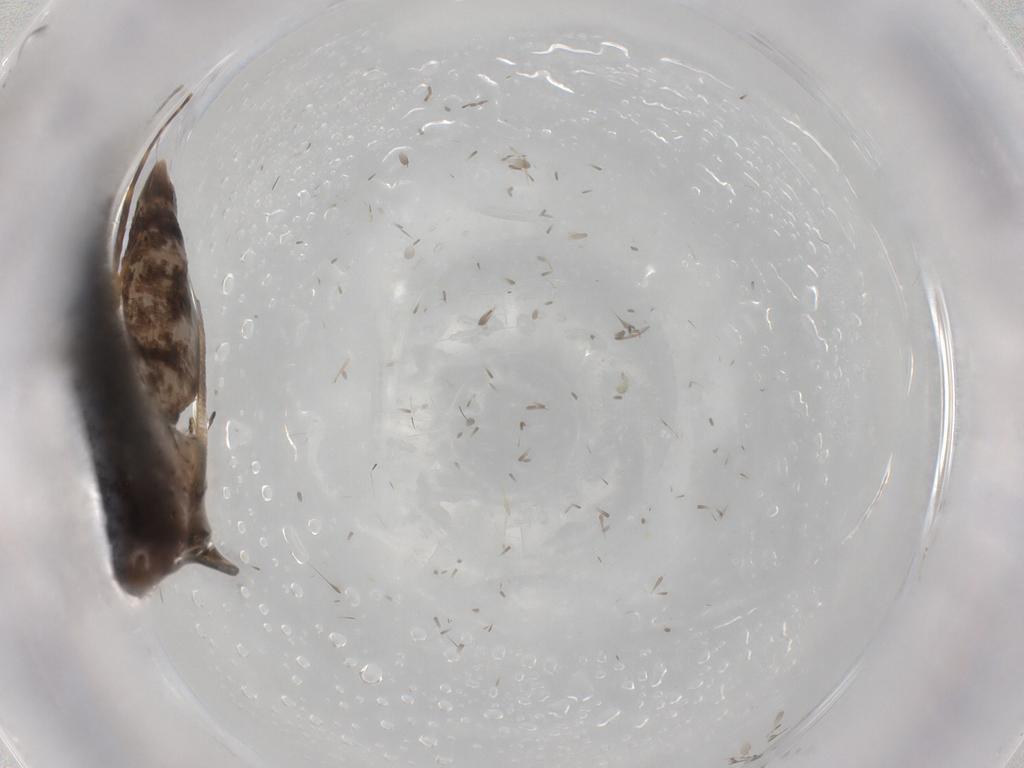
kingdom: Animalia
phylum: Arthropoda
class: Insecta
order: Lepidoptera
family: Gelechiidae
